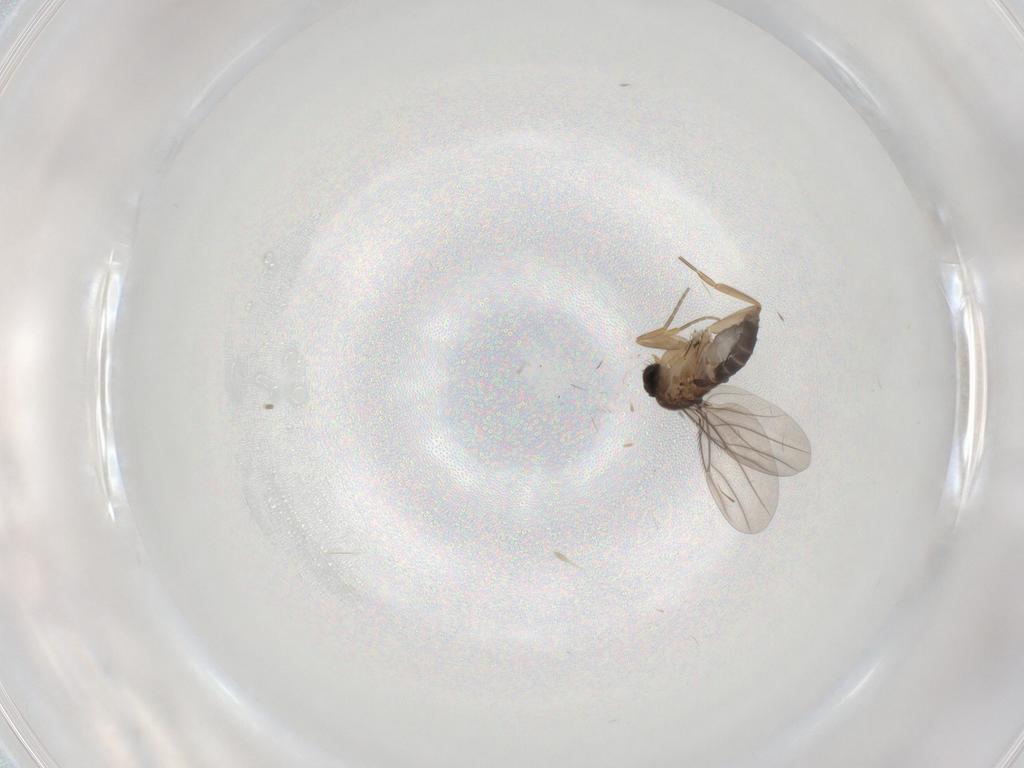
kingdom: Animalia
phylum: Arthropoda
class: Insecta
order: Diptera
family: Phoridae
